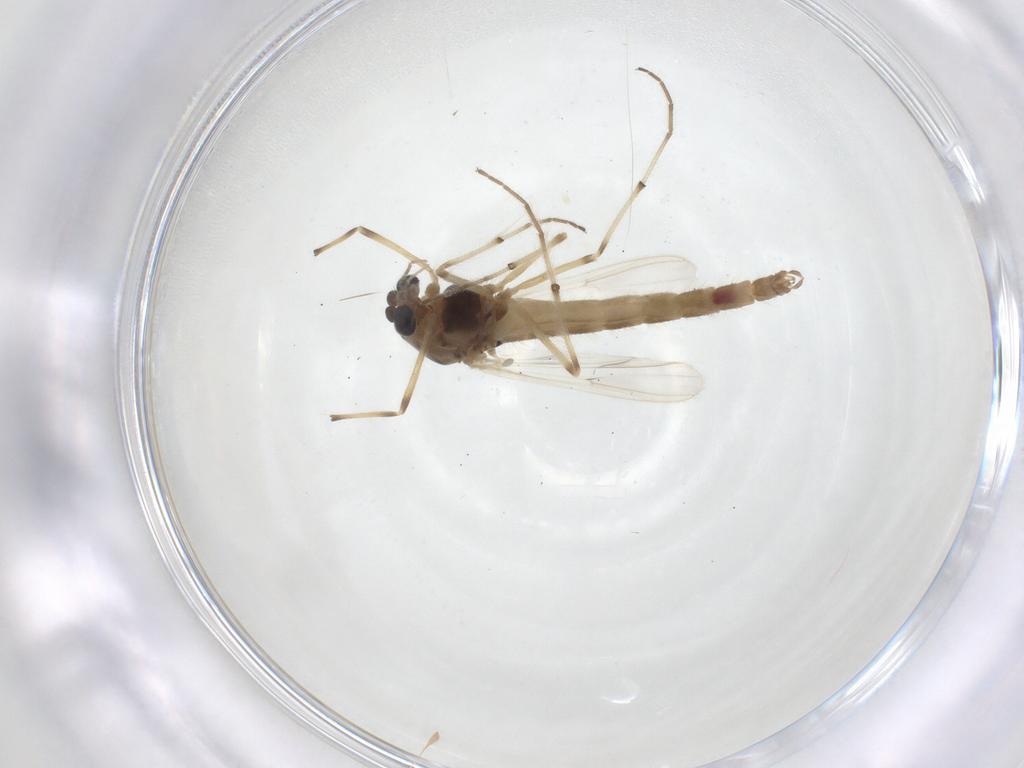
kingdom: Animalia
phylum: Arthropoda
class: Insecta
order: Diptera
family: Chironomidae
